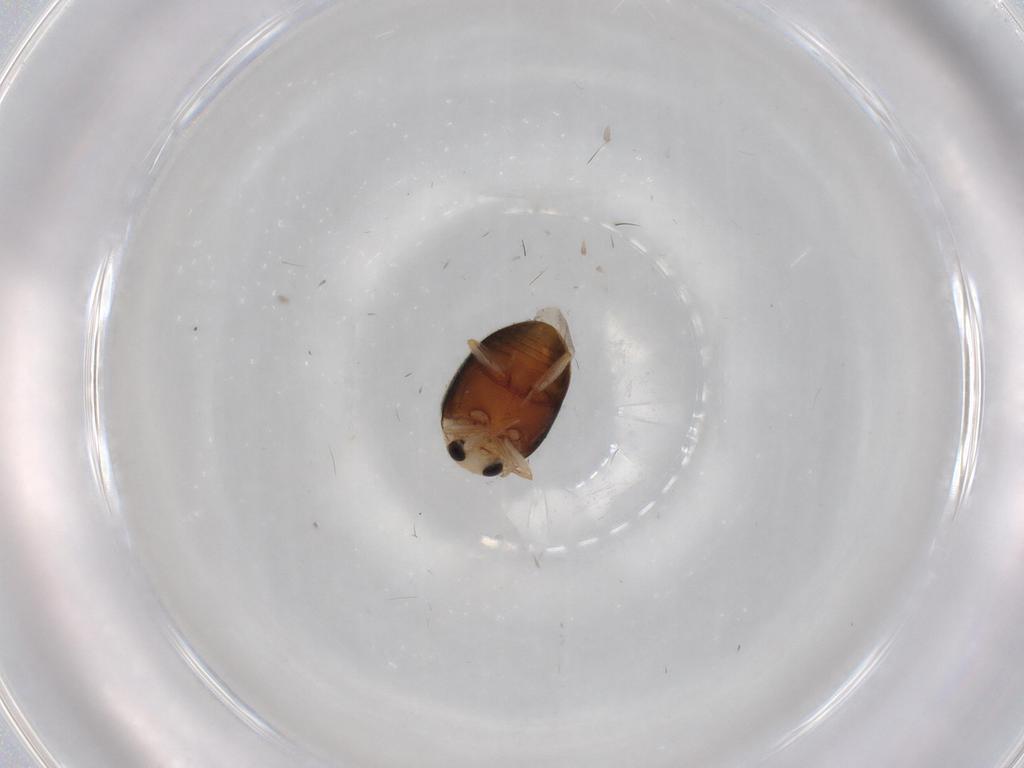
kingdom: Animalia
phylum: Arthropoda
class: Insecta
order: Coleoptera
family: Coccinellidae
